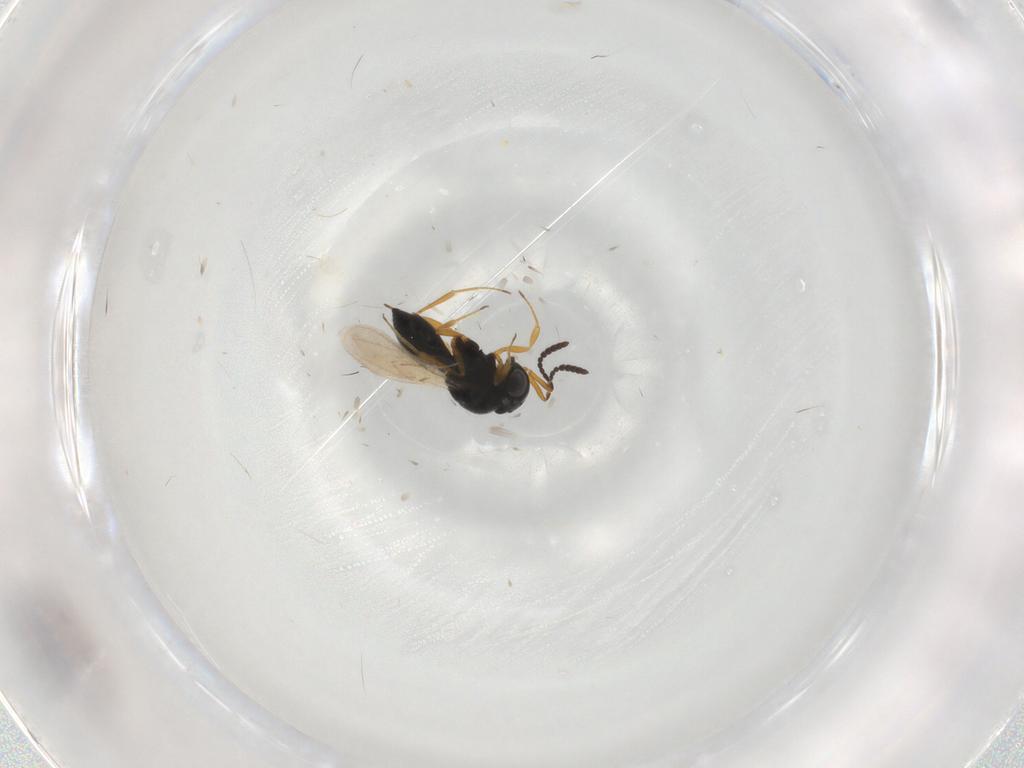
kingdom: Animalia
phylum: Arthropoda
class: Insecta
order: Hymenoptera
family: Scelionidae
